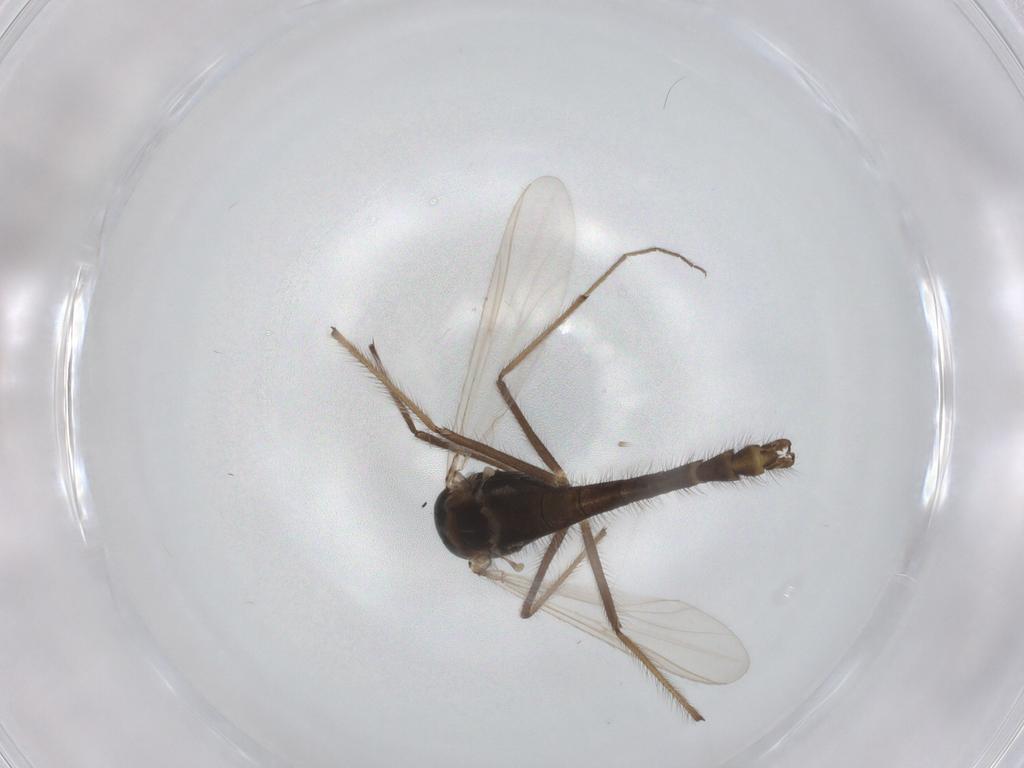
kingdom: Animalia
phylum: Arthropoda
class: Insecta
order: Diptera
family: Chironomidae
